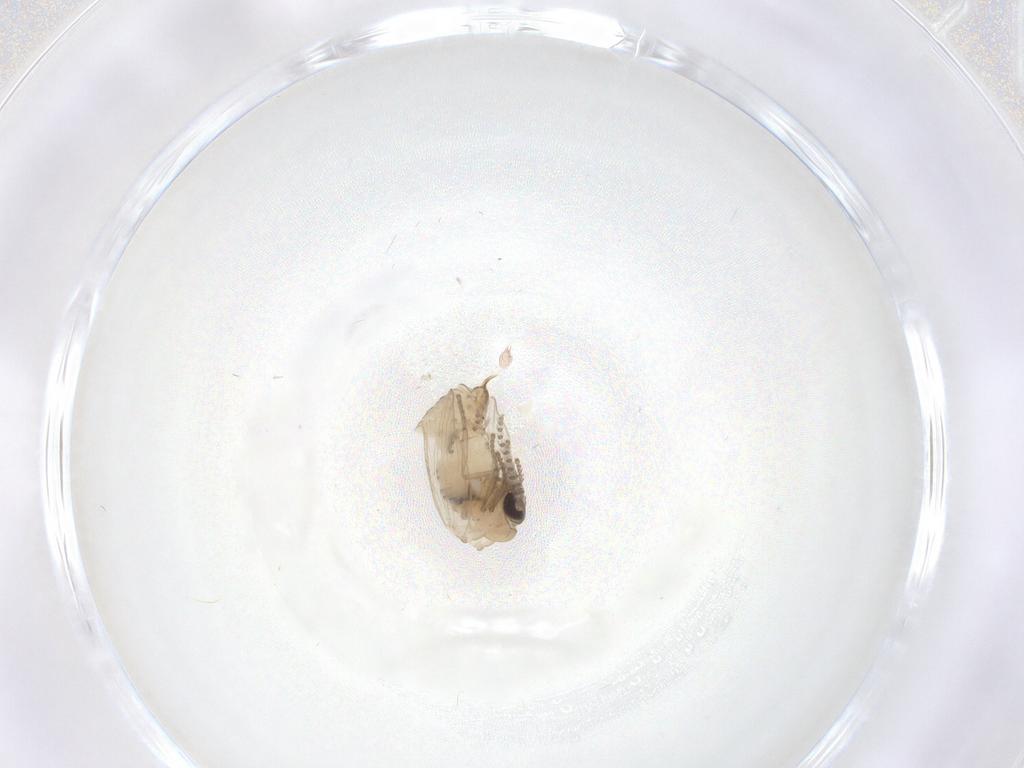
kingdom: Animalia
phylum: Arthropoda
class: Insecta
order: Diptera
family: Psychodidae
